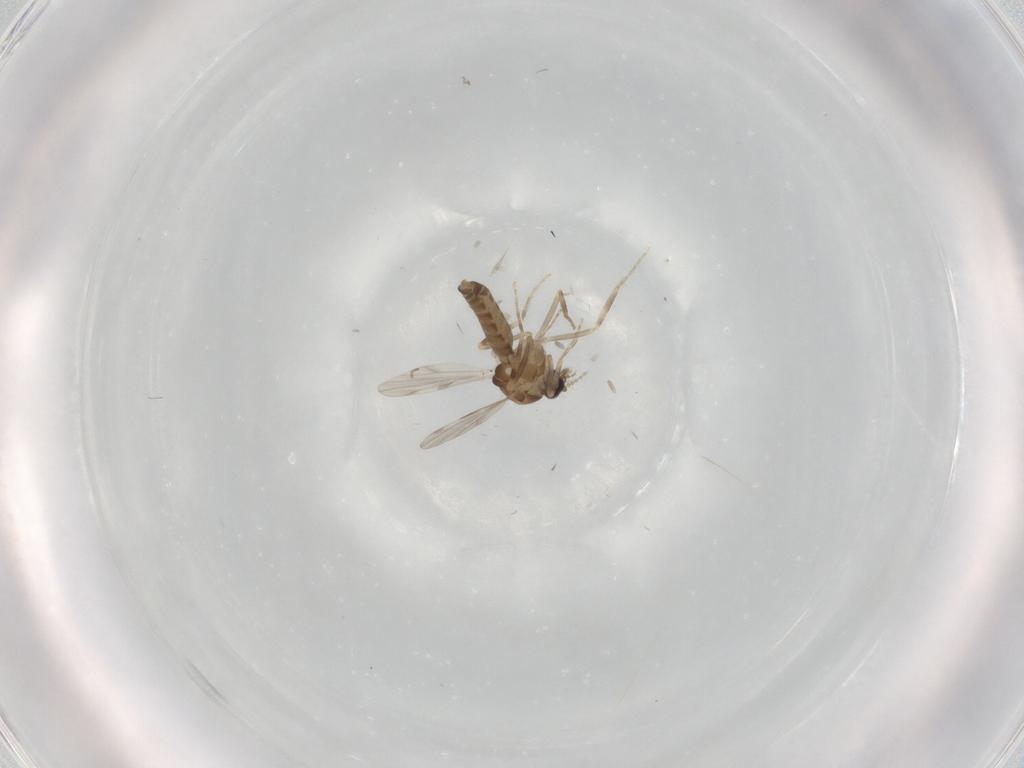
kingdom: Animalia
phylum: Arthropoda
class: Insecta
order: Diptera
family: Ceratopogonidae
